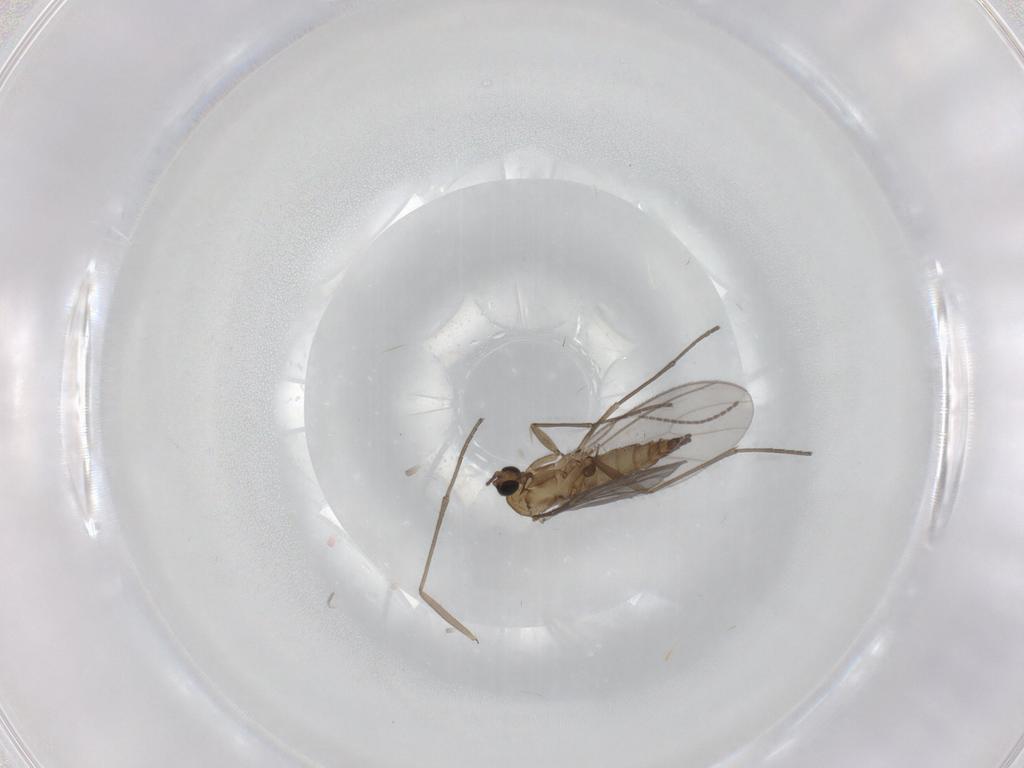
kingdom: Animalia
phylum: Arthropoda
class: Insecta
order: Diptera
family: Sciaridae
